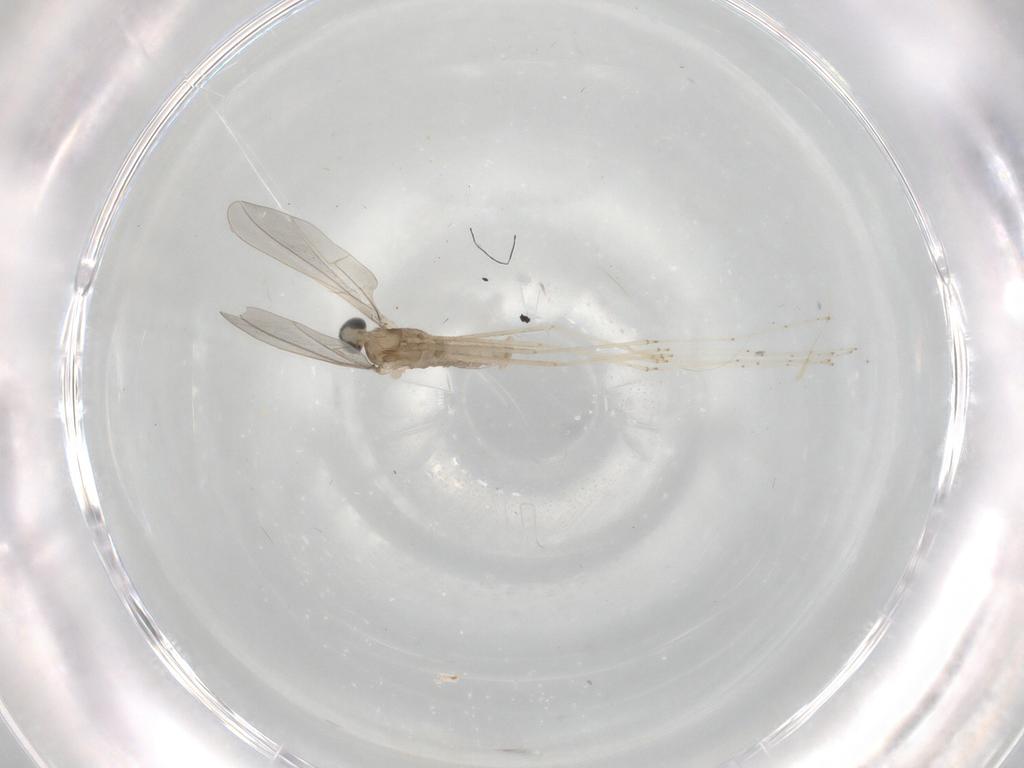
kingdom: Animalia
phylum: Arthropoda
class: Insecta
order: Diptera
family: Cecidomyiidae
